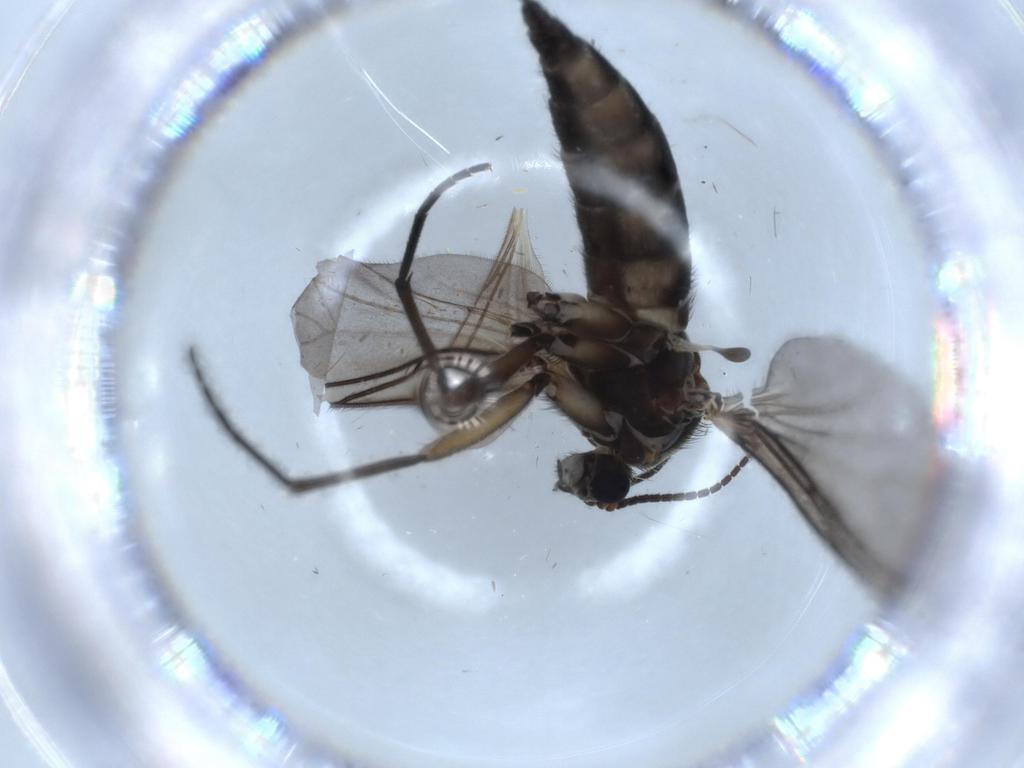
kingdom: Animalia
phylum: Arthropoda
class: Insecta
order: Diptera
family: Sciaridae
